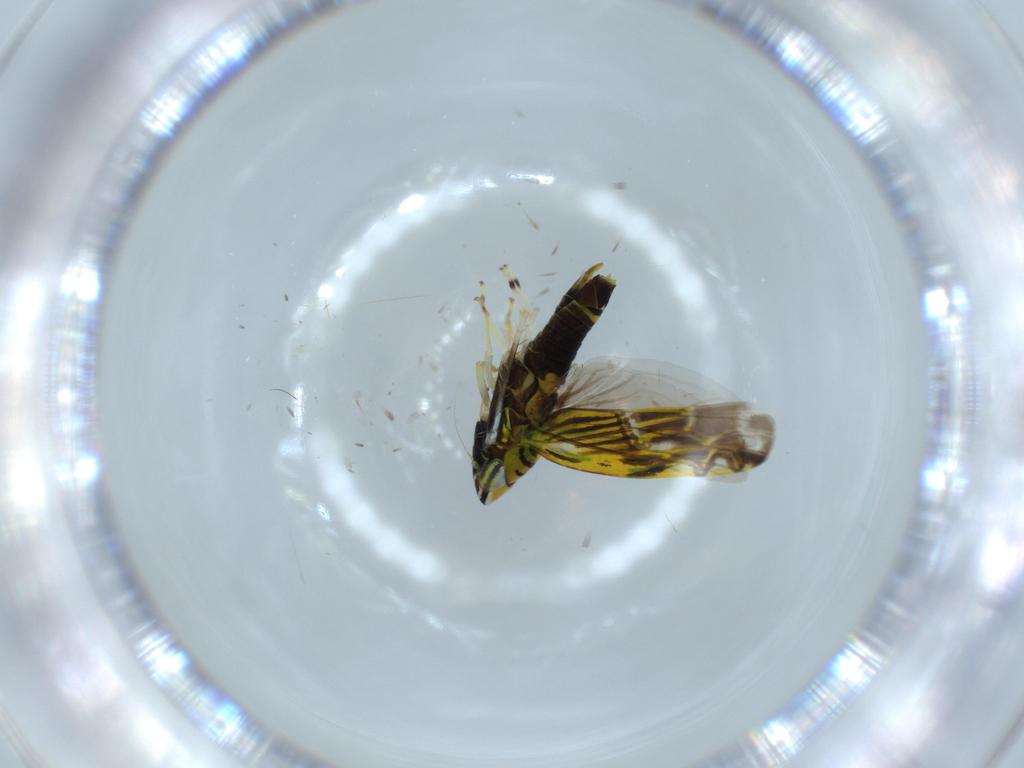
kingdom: Animalia
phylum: Arthropoda
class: Insecta
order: Hemiptera
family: Cicadellidae
